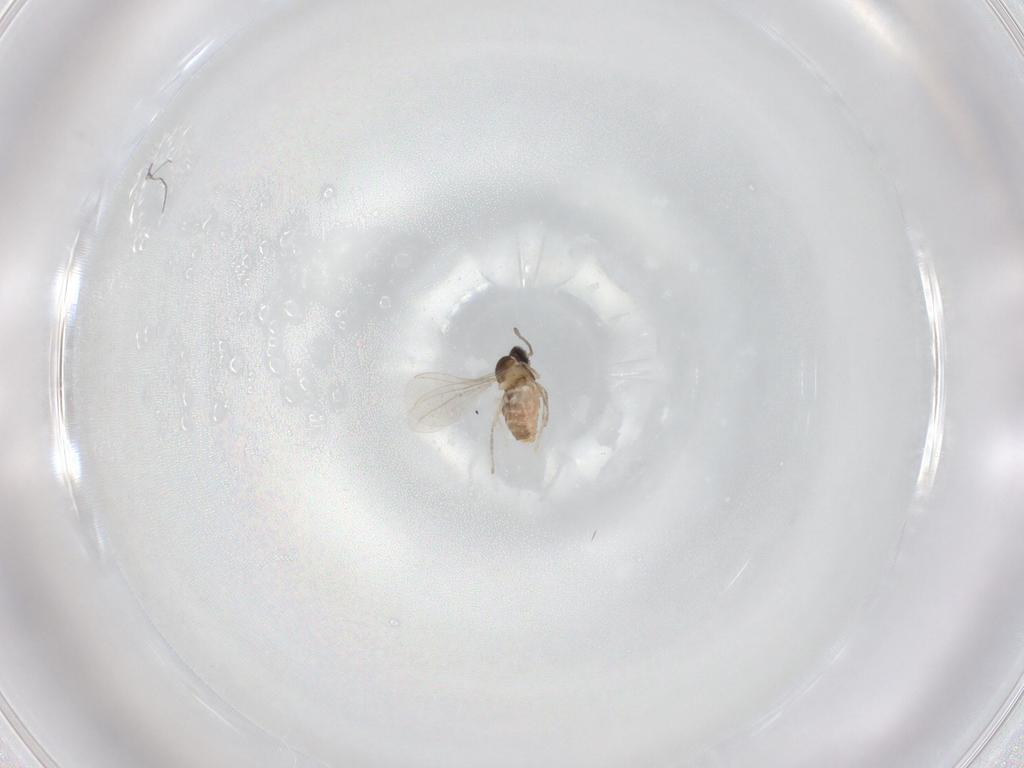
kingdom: Animalia
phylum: Arthropoda
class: Insecta
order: Diptera
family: Cecidomyiidae
